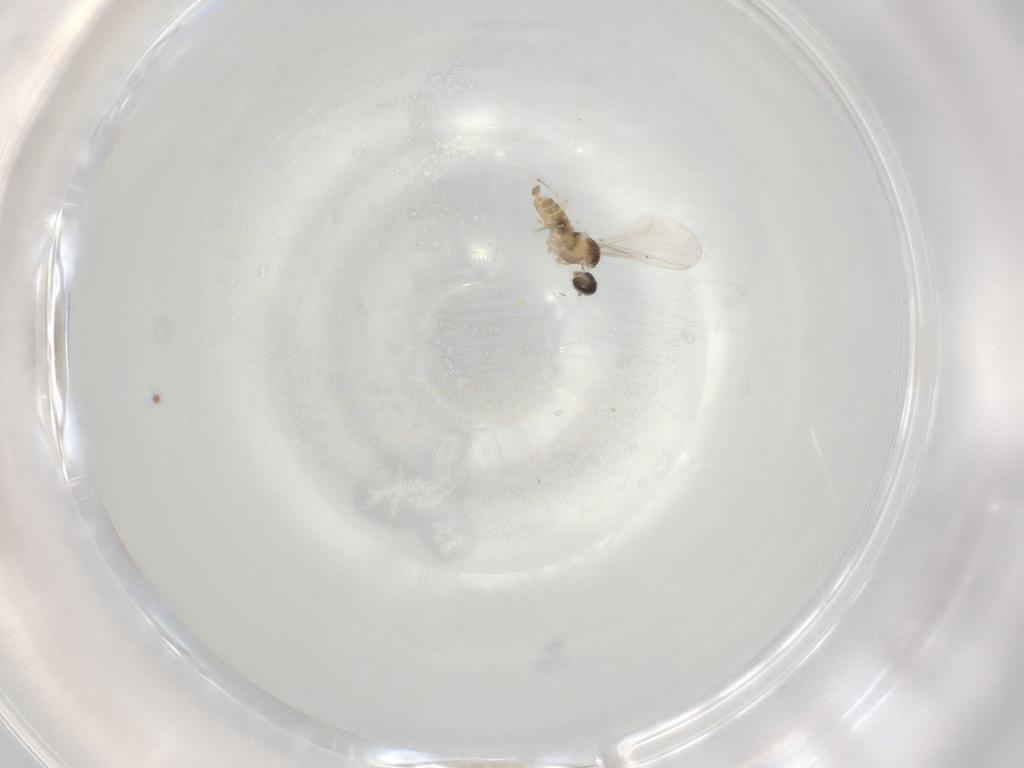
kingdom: Animalia
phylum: Arthropoda
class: Insecta
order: Diptera
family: Cecidomyiidae
